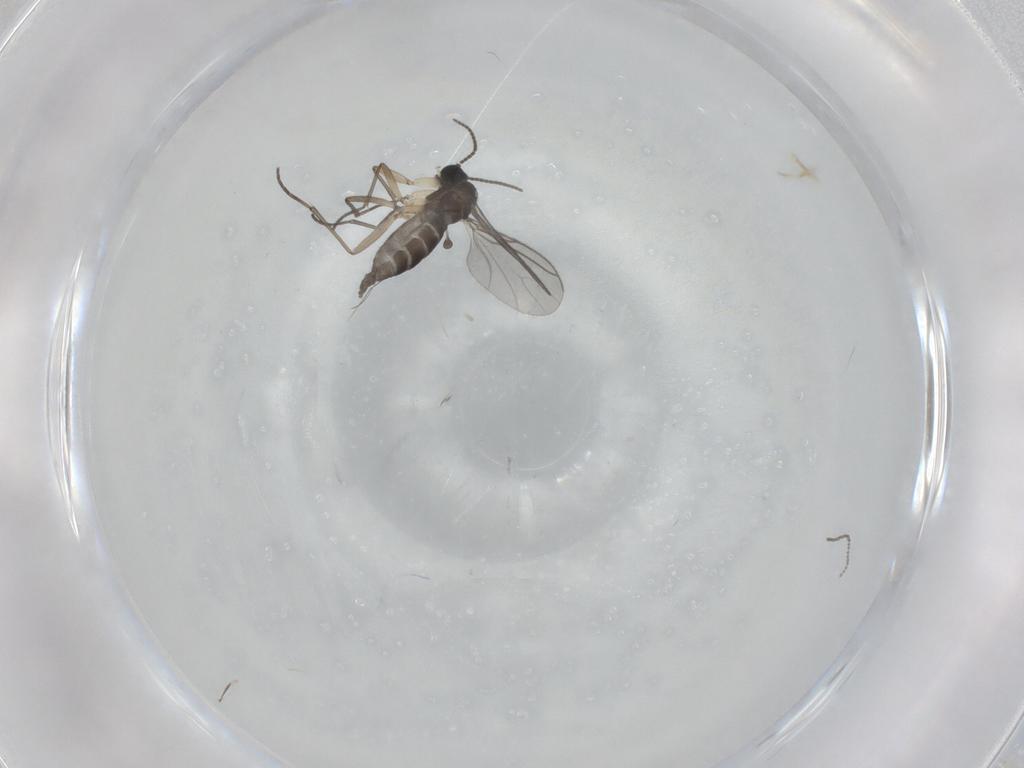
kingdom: Animalia
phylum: Arthropoda
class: Insecta
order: Diptera
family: Sciaridae
